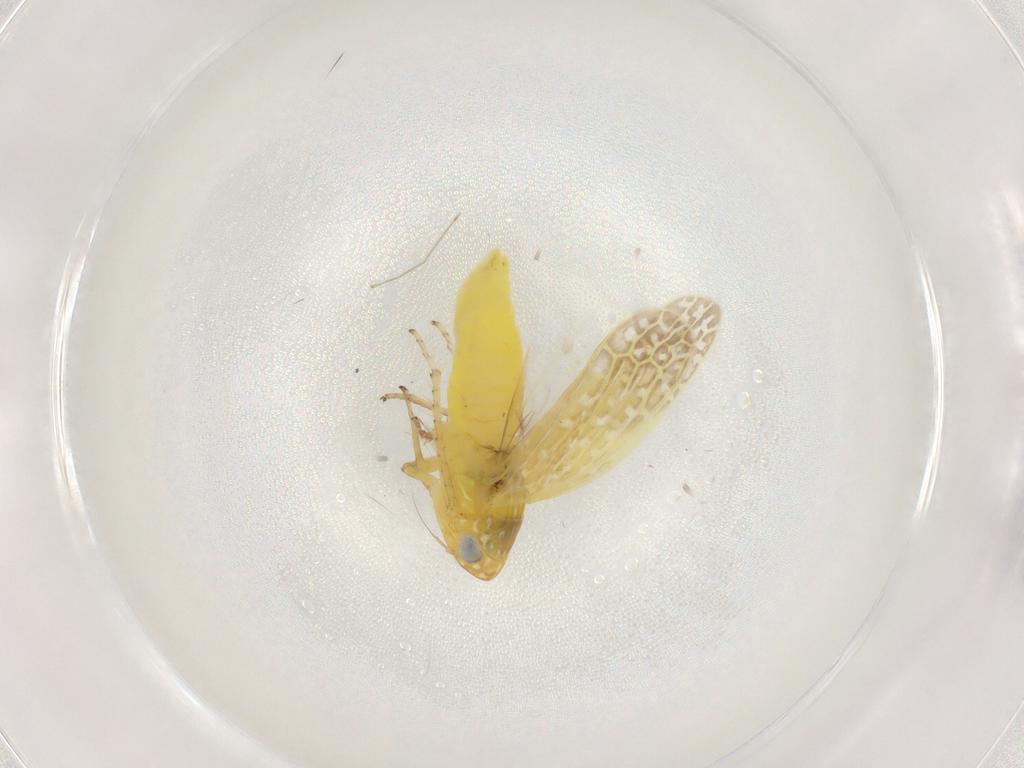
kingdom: Animalia
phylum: Arthropoda
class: Insecta
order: Hemiptera
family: Cicadellidae
